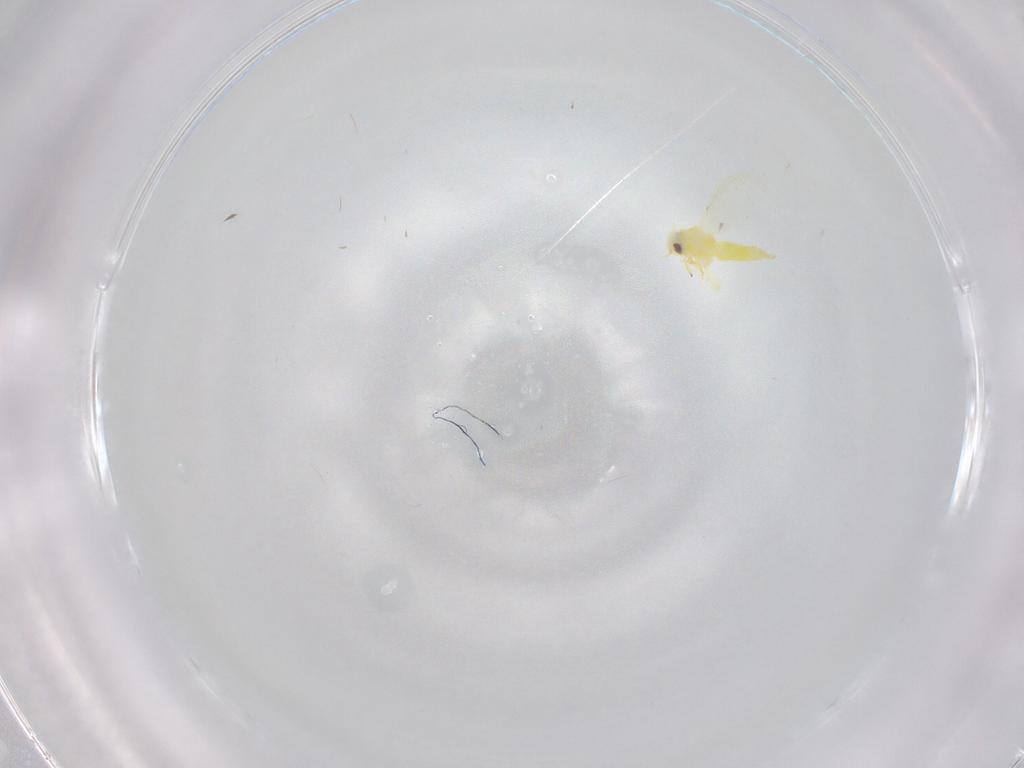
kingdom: Animalia
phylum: Arthropoda
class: Insecta
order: Hemiptera
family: Aleyrodidae
